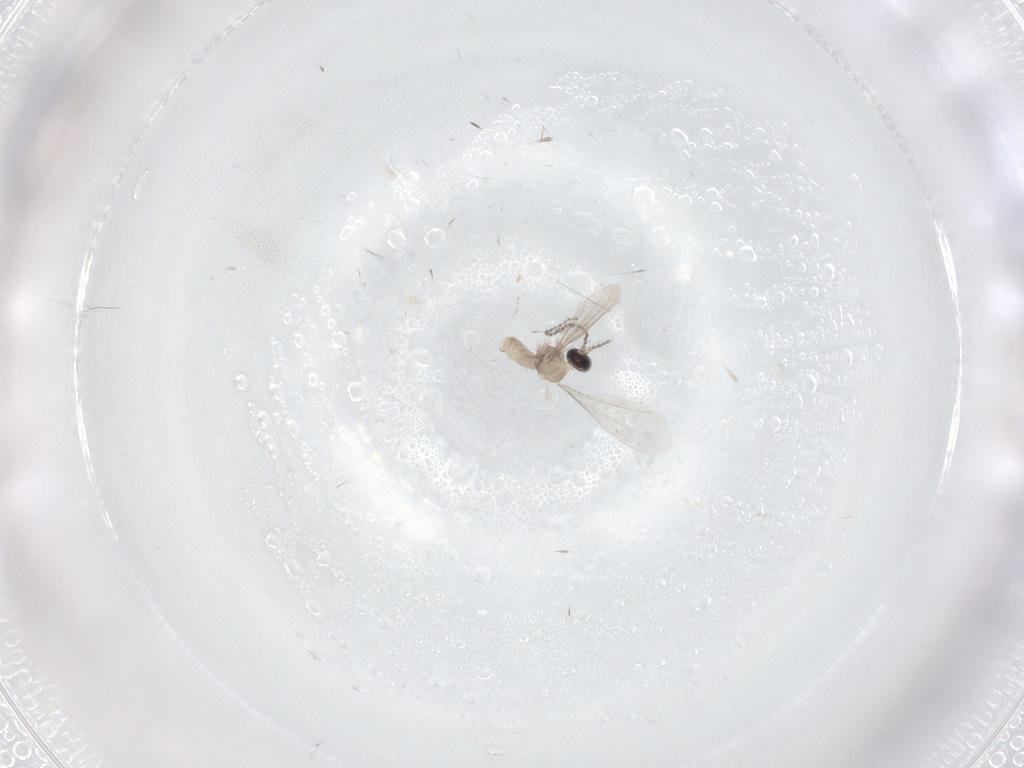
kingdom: Animalia
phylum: Arthropoda
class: Insecta
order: Diptera
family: Cecidomyiidae
